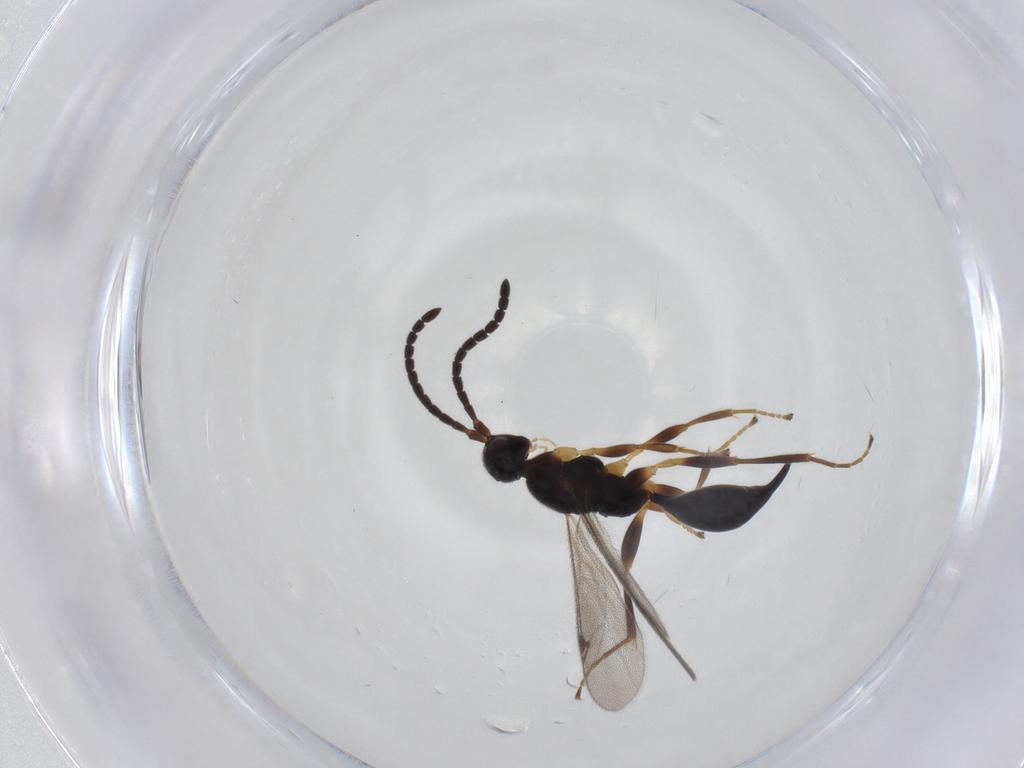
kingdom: Animalia
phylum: Arthropoda
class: Insecta
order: Hymenoptera
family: Proctotrupidae
